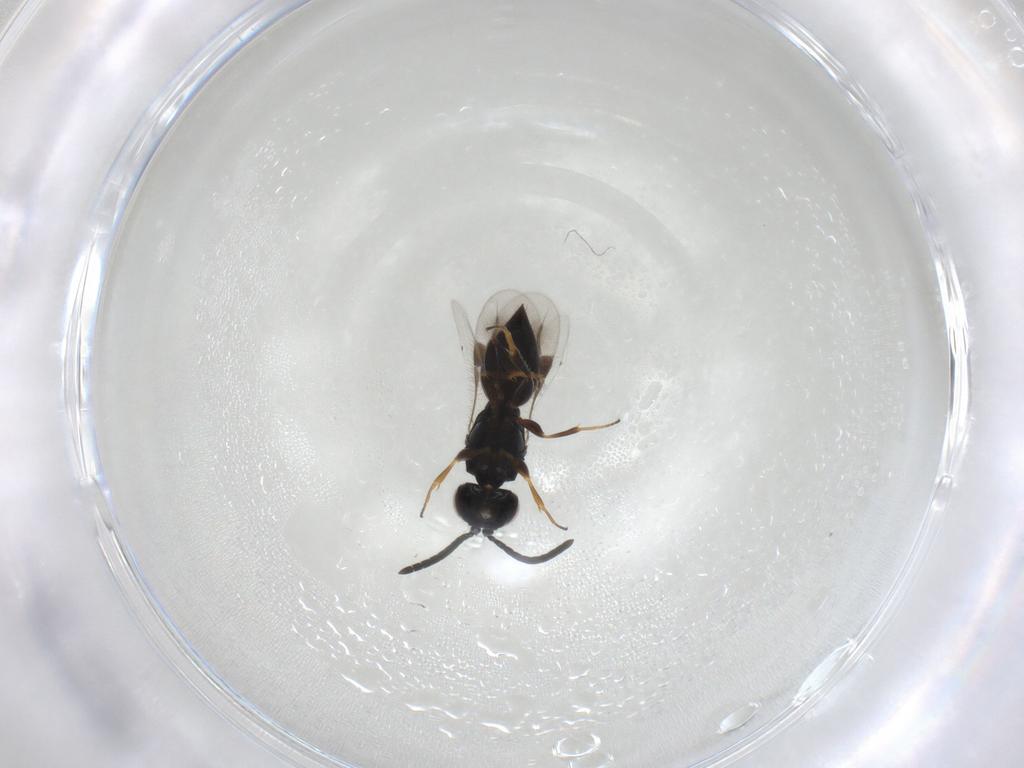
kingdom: Animalia
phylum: Arthropoda
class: Insecta
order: Hymenoptera
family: Megaspilidae
